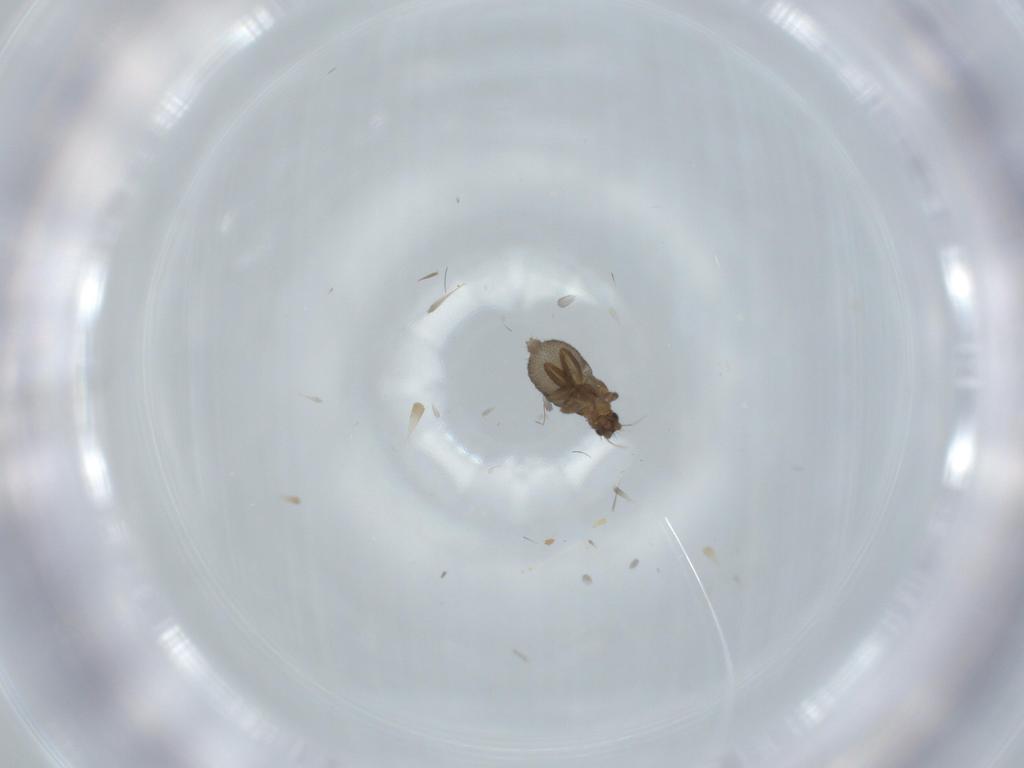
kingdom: Animalia
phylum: Arthropoda
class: Insecta
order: Diptera
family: Phoridae
